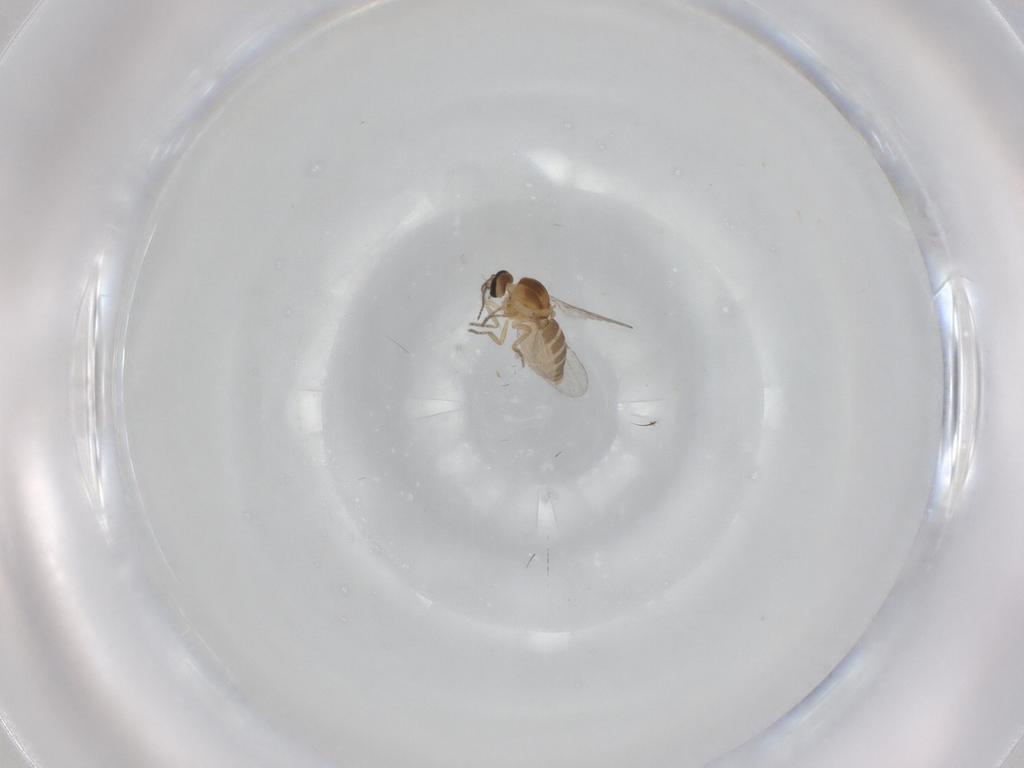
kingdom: Animalia
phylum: Arthropoda
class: Insecta
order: Diptera
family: Ceratopogonidae
